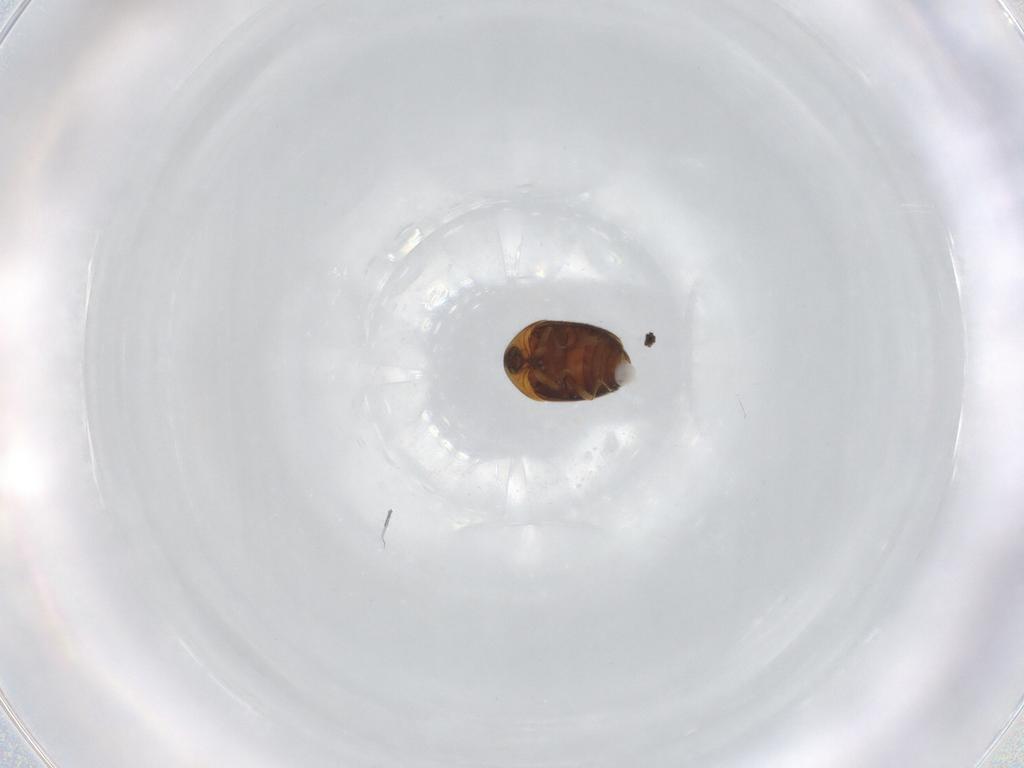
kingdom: Animalia
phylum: Arthropoda
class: Insecta
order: Coleoptera
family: Corylophidae
